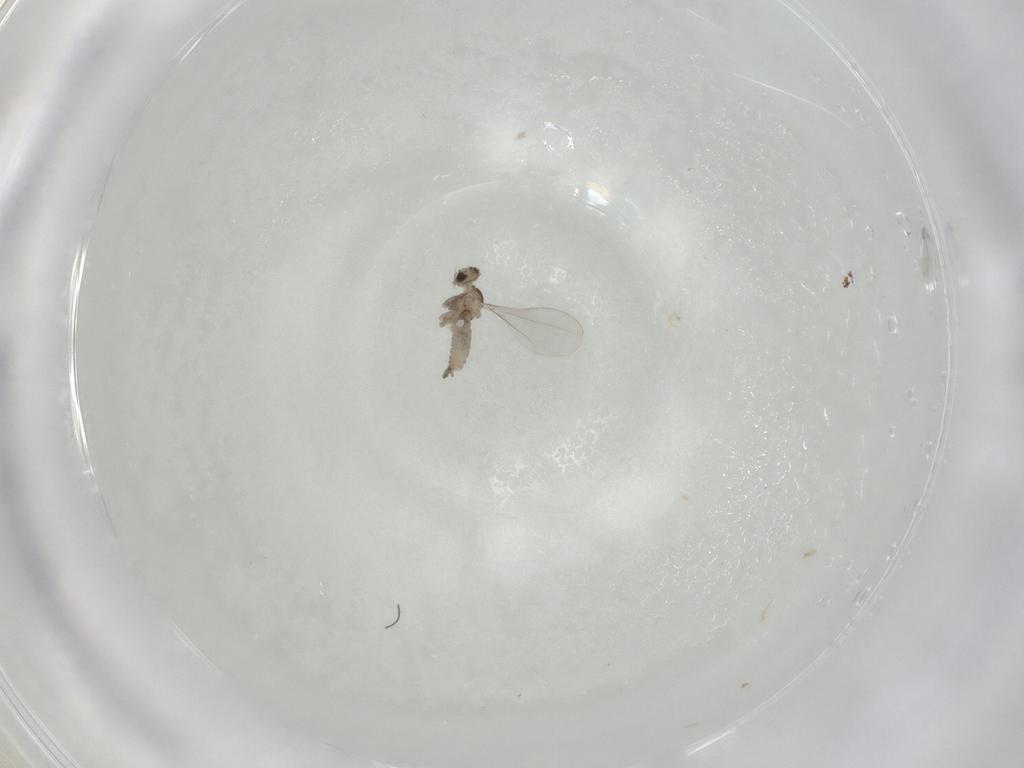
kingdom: Animalia
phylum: Arthropoda
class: Insecta
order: Diptera
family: Cecidomyiidae
